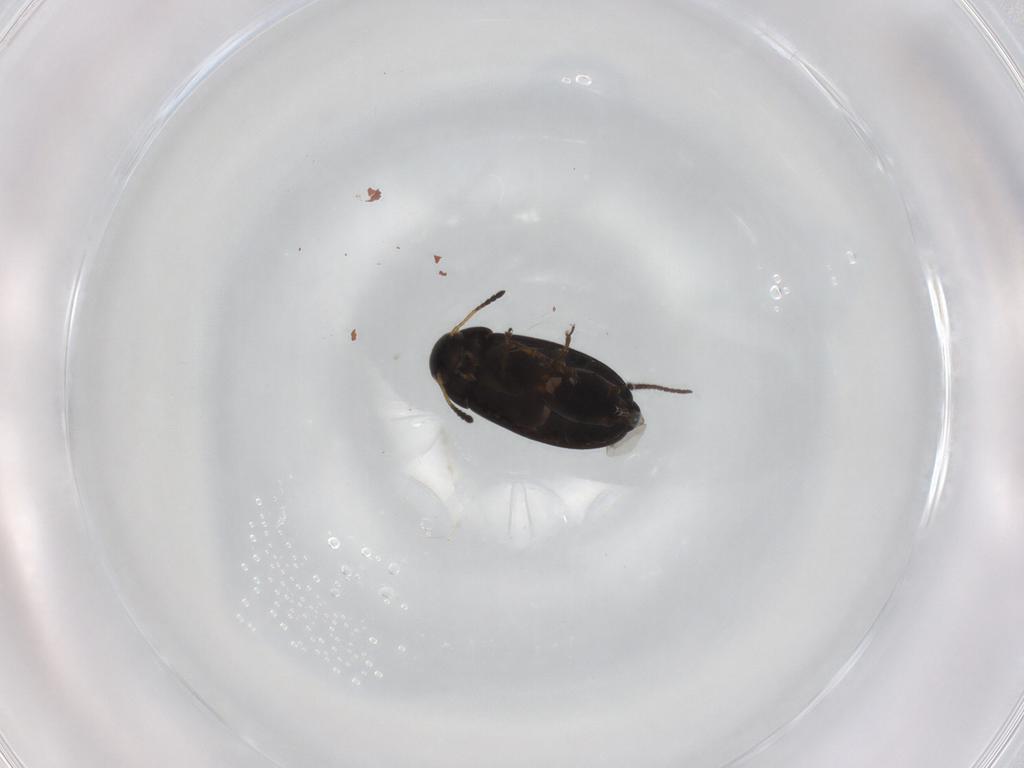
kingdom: Animalia
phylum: Arthropoda
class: Insecta
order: Coleoptera
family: Scraptiidae
